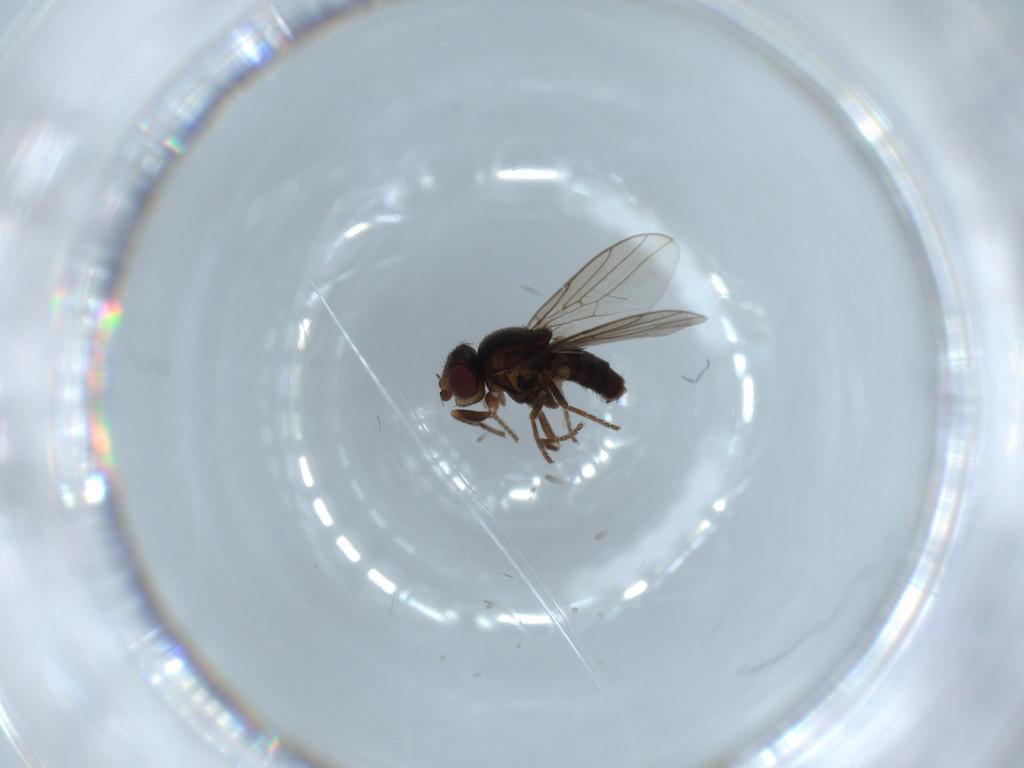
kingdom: Animalia
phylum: Arthropoda
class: Insecta
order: Diptera
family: Chloropidae
